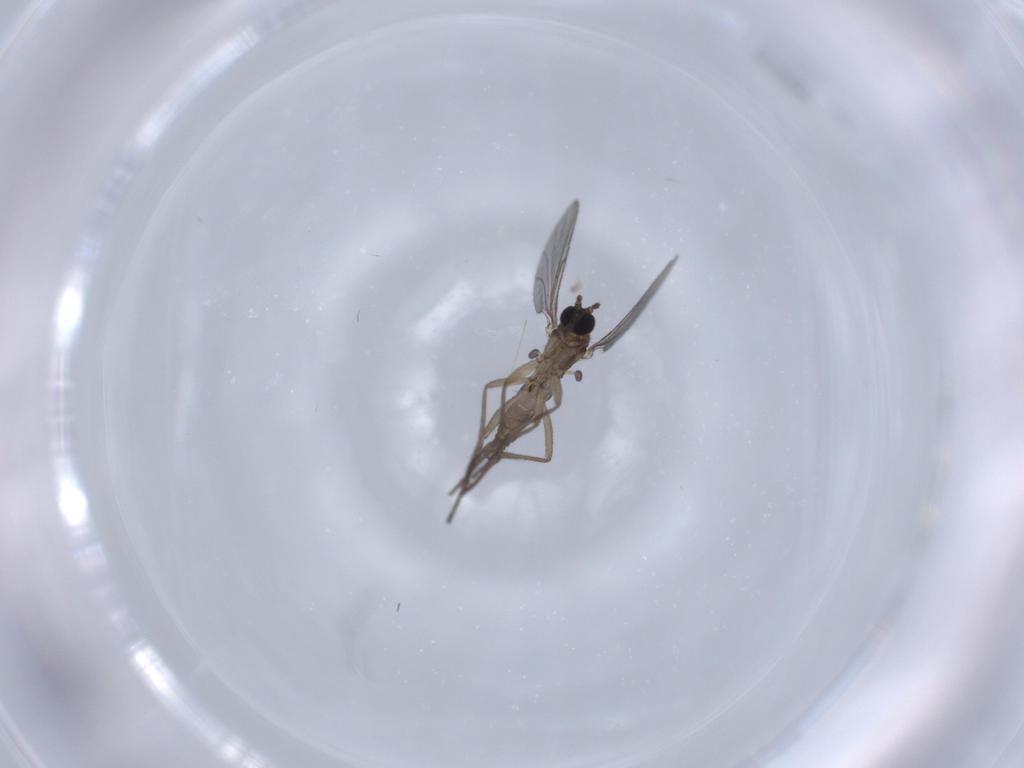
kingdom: Animalia
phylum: Arthropoda
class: Insecta
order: Diptera
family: Sciaridae
